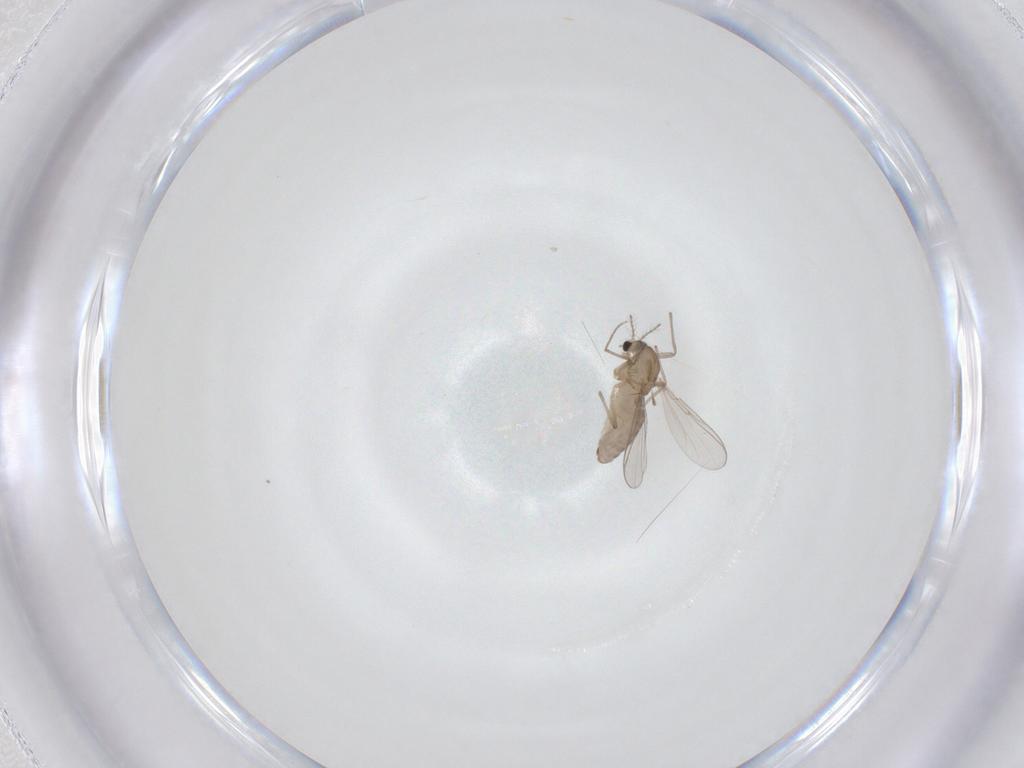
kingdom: Animalia
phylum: Arthropoda
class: Insecta
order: Diptera
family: Chironomidae
